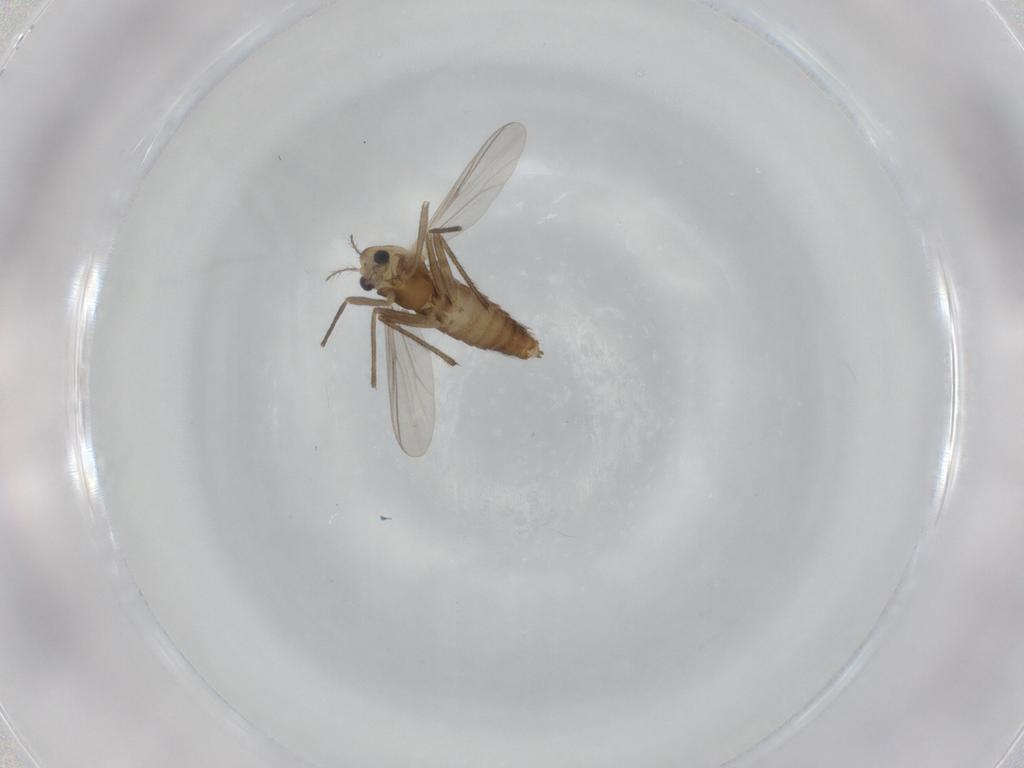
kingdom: Animalia
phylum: Arthropoda
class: Insecta
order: Diptera
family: Chironomidae
